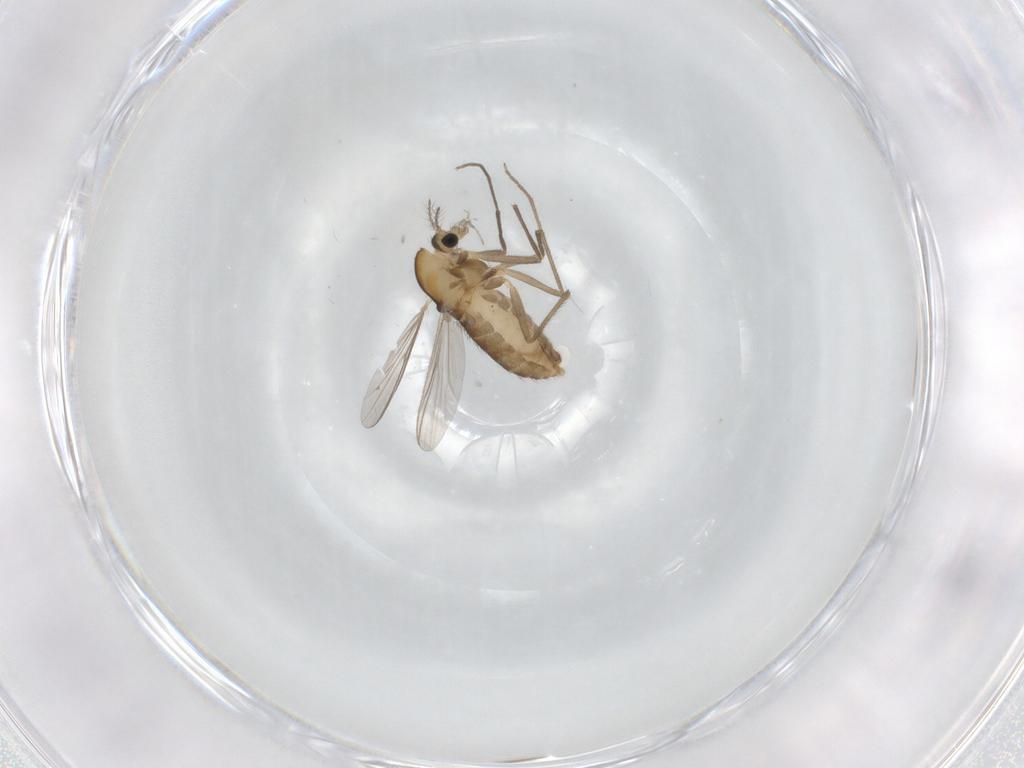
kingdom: Animalia
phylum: Arthropoda
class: Insecta
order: Diptera
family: Chironomidae
